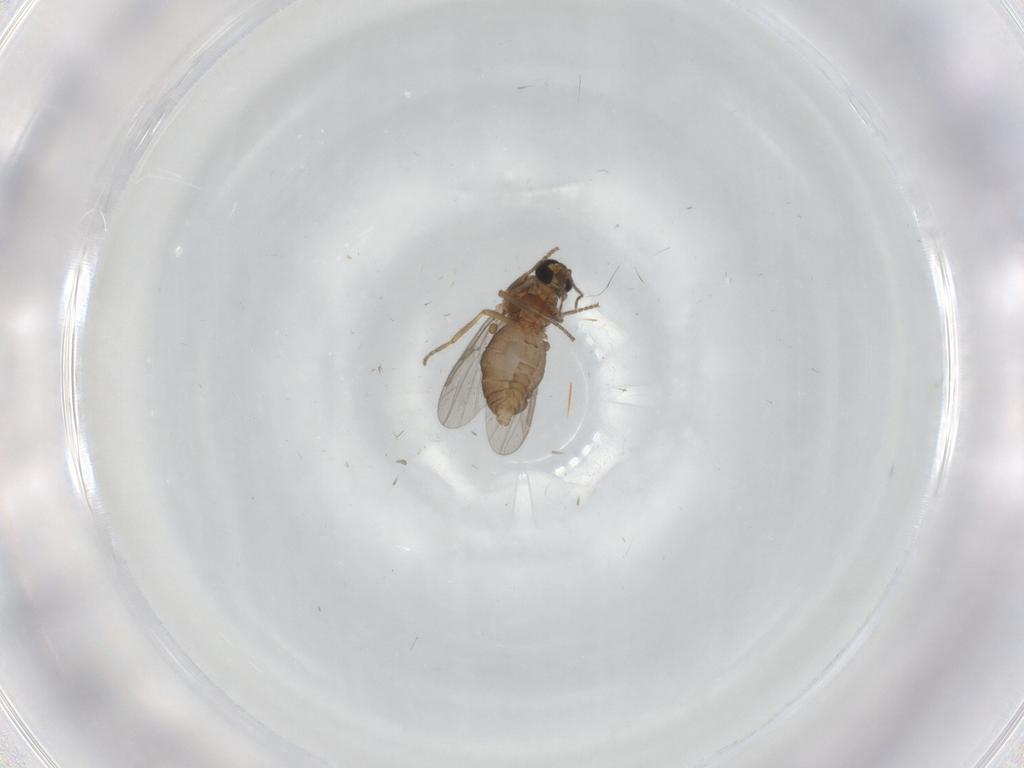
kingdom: Animalia
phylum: Arthropoda
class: Insecta
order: Diptera
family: Ceratopogonidae
